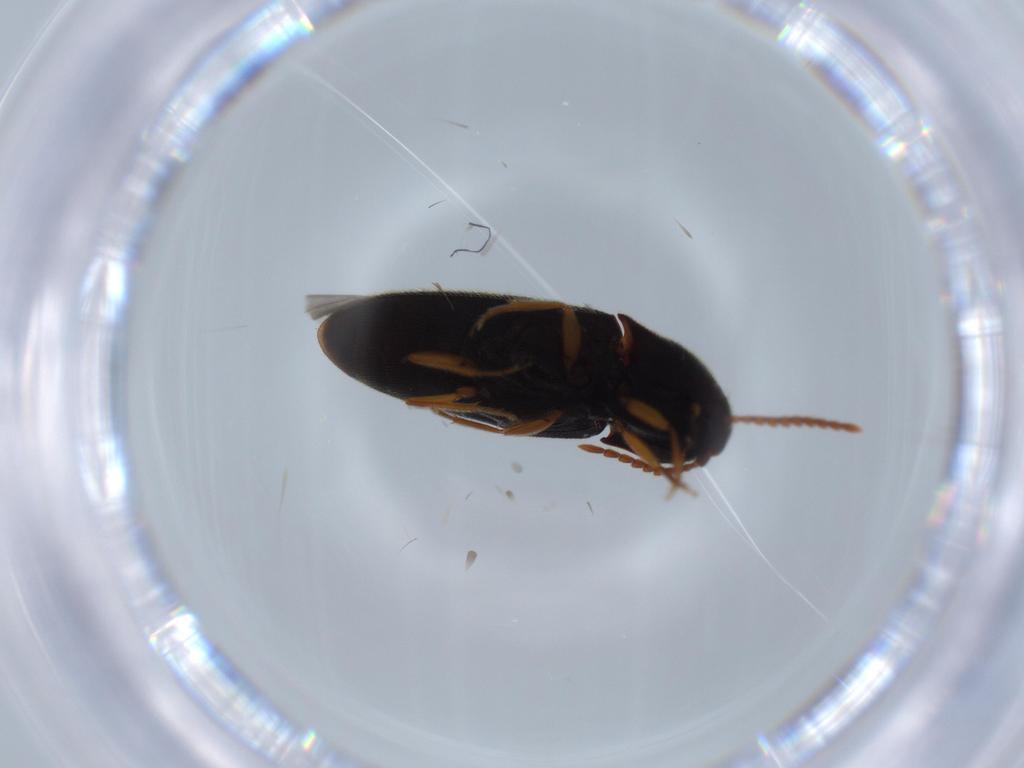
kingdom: Animalia
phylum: Arthropoda
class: Insecta
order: Coleoptera
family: Elateridae
